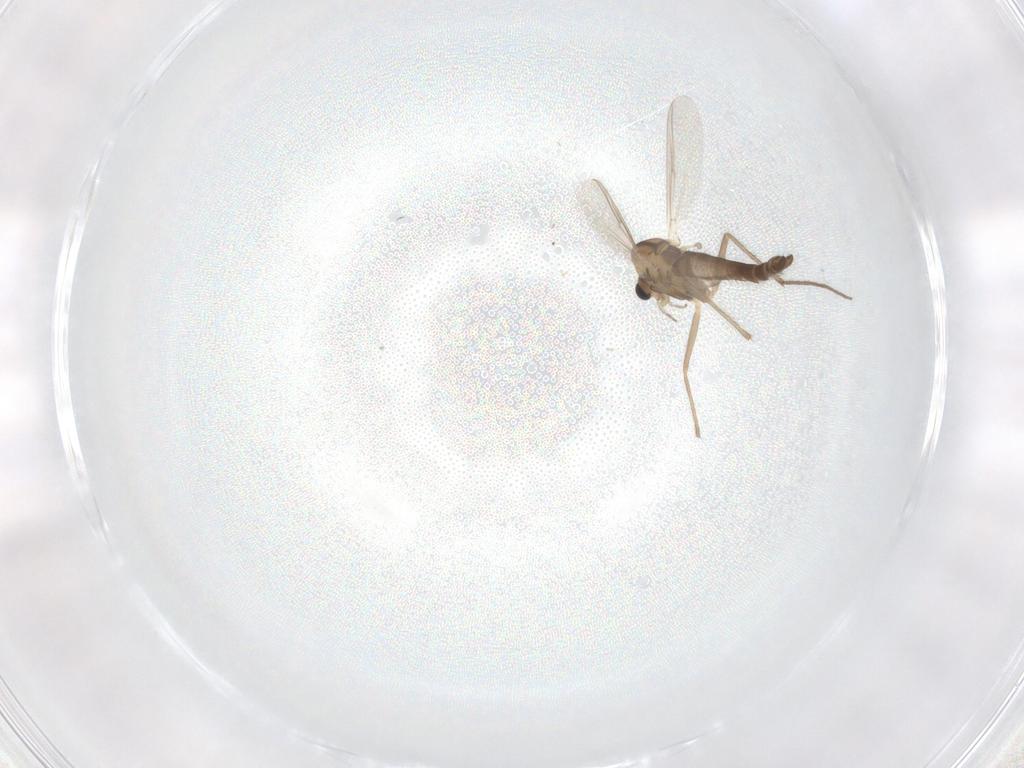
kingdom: Animalia
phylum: Arthropoda
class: Insecta
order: Diptera
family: Chironomidae
